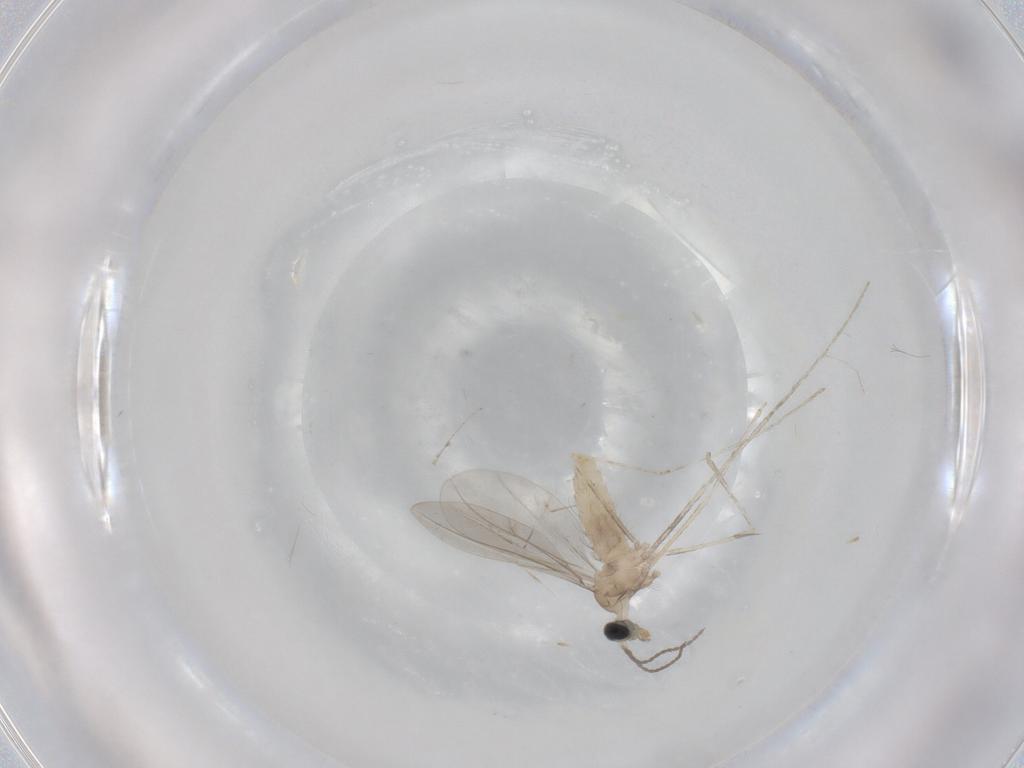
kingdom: Animalia
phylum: Arthropoda
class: Insecta
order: Diptera
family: Cecidomyiidae
